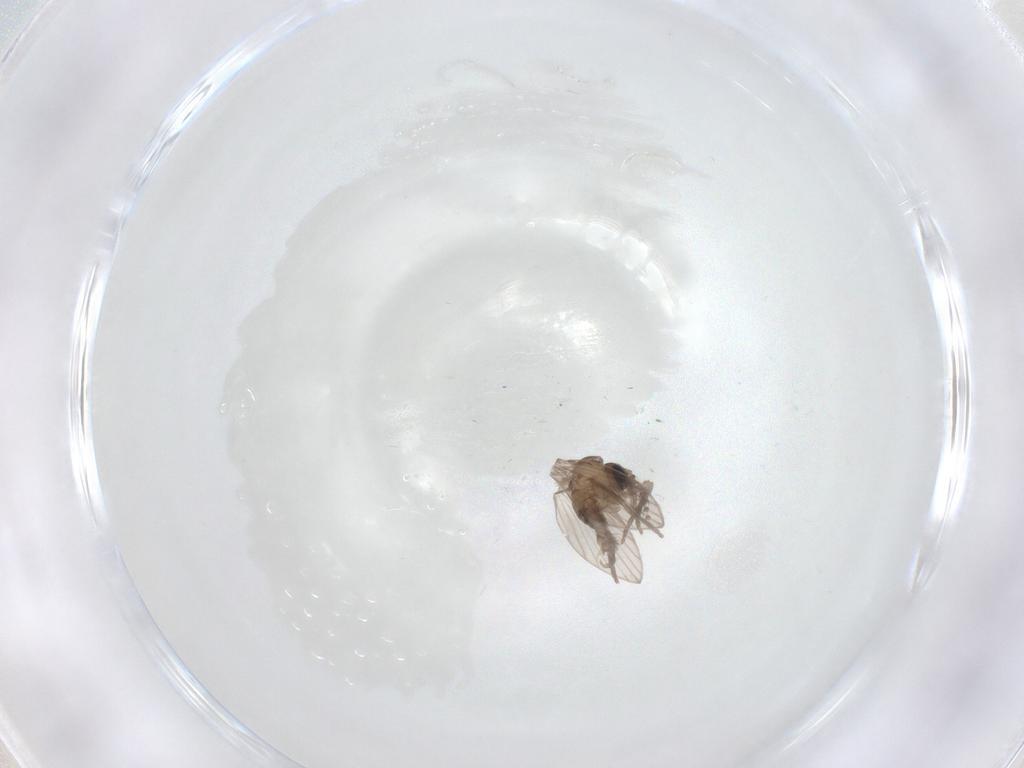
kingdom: Animalia
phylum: Arthropoda
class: Insecta
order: Diptera
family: Psychodidae
